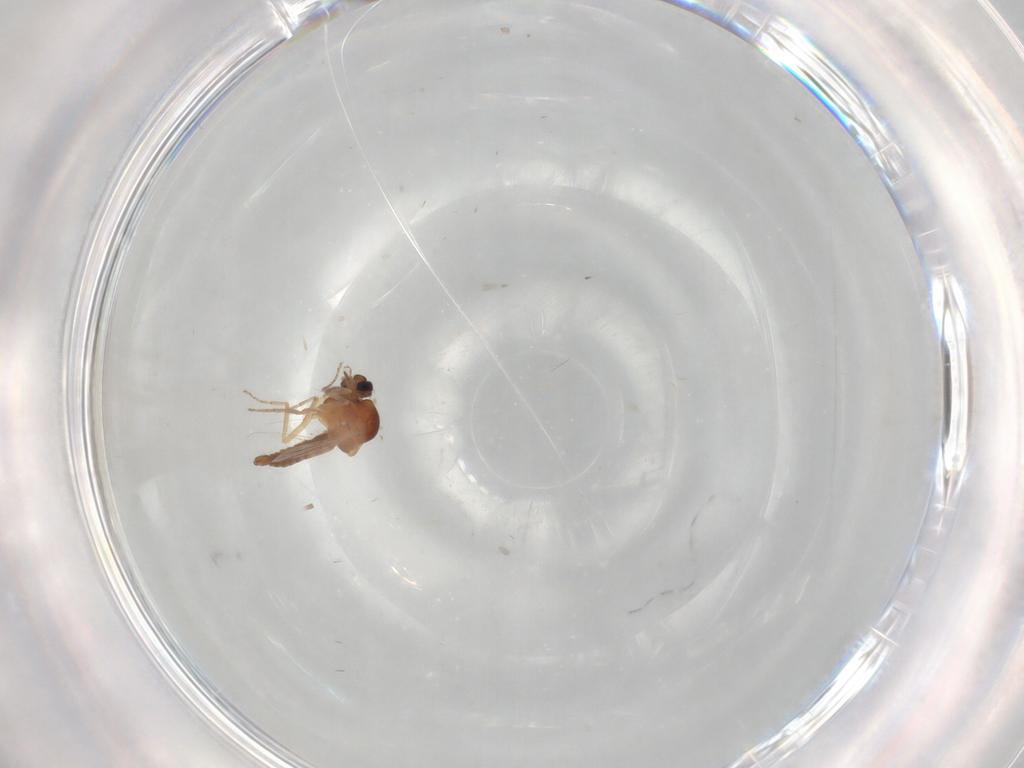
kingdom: Animalia
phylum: Arthropoda
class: Insecta
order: Diptera
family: Ceratopogonidae
